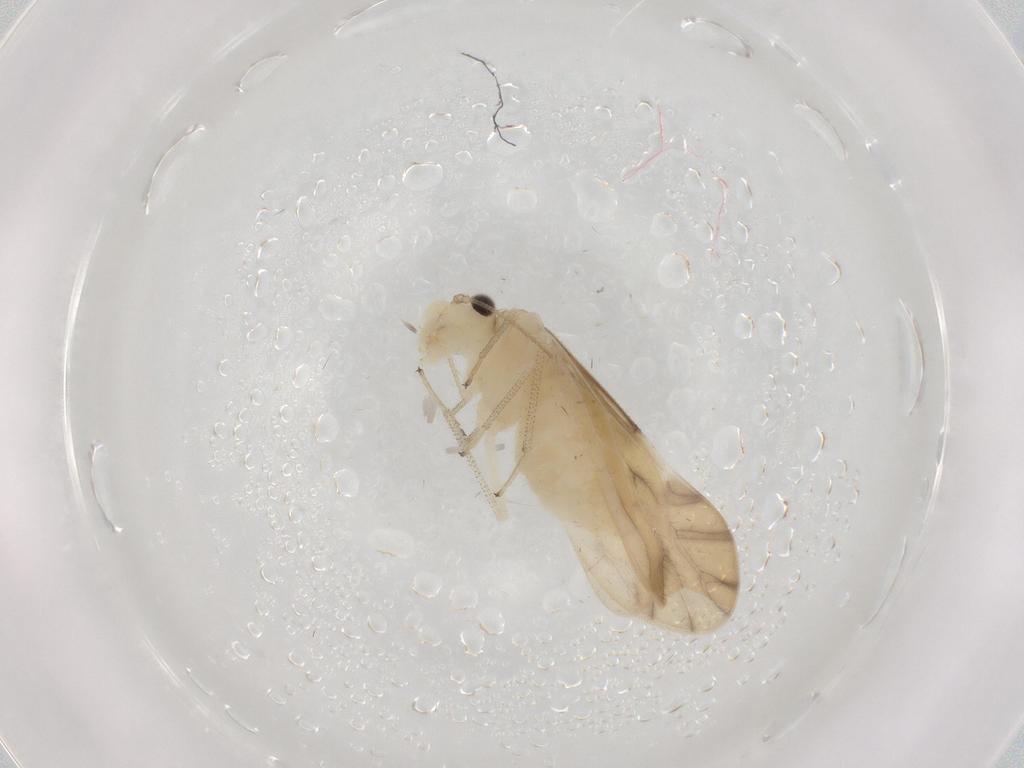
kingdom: Animalia
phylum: Arthropoda
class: Insecta
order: Psocodea
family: Caeciliusidae
